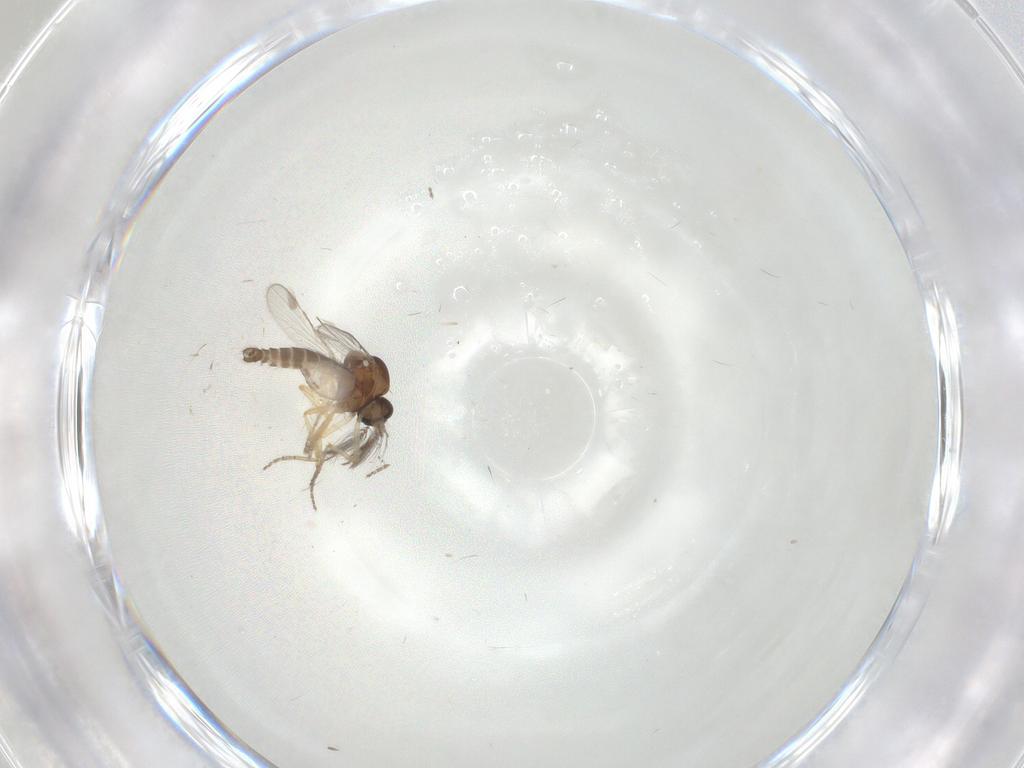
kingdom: Animalia
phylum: Arthropoda
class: Insecta
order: Diptera
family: Ceratopogonidae
